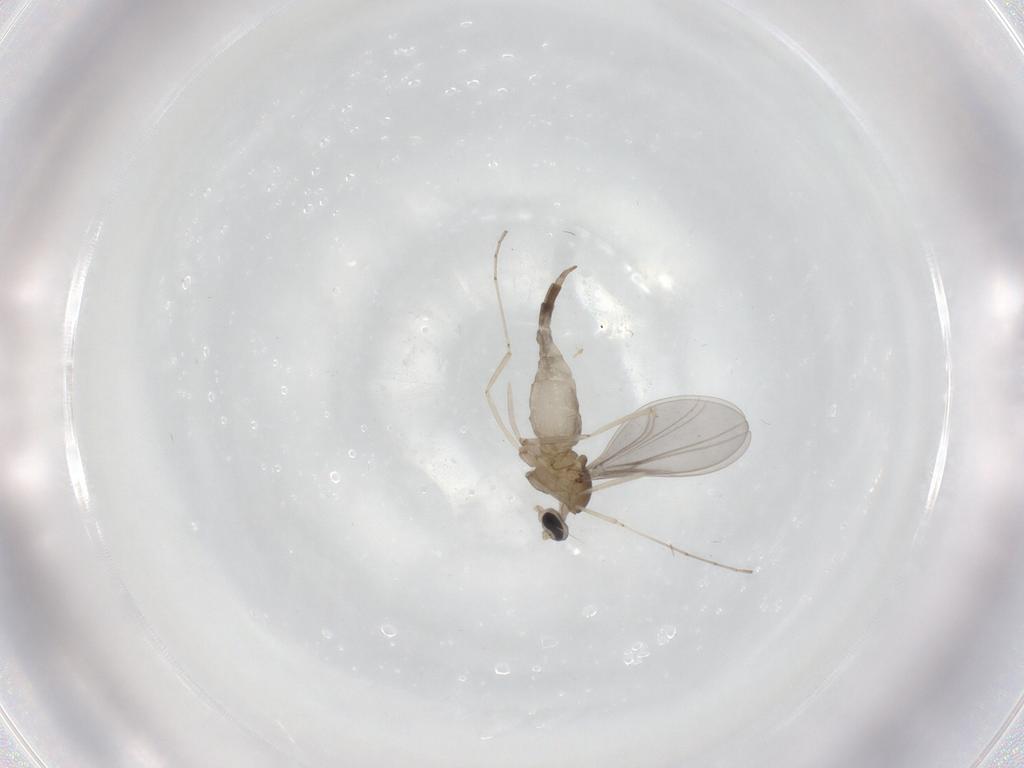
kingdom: Animalia
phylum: Arthropoda
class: Insecta
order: Diptera
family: Cecidomyiidae
